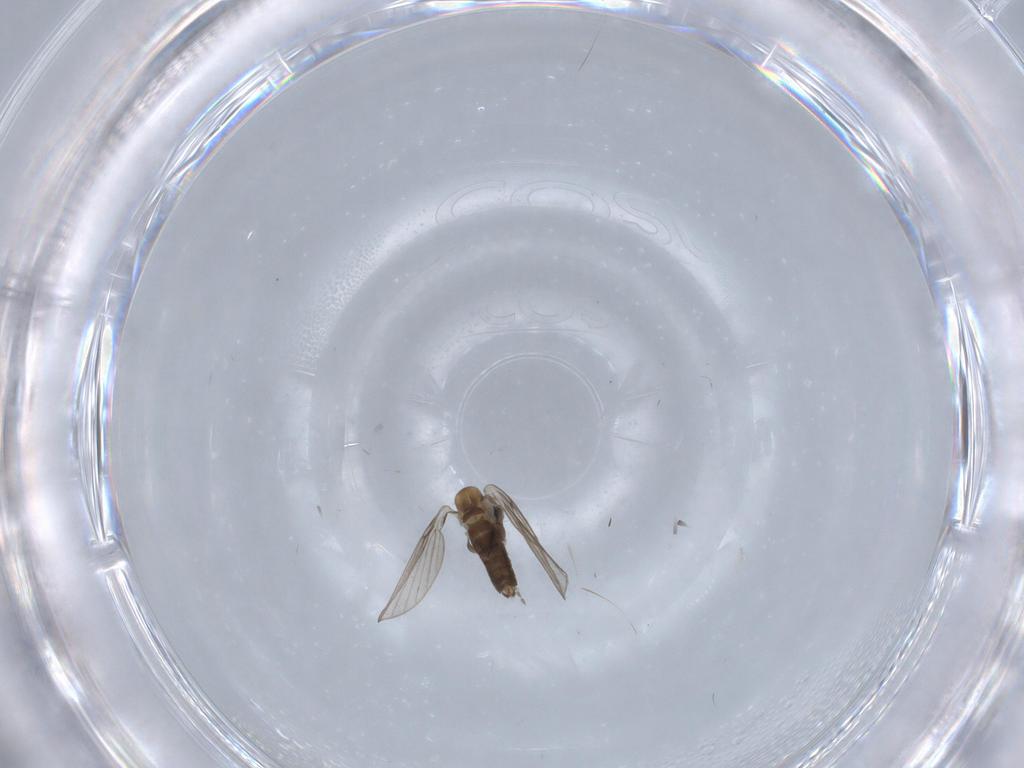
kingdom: Animalia
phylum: Arthropoda
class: Insecta
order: Diptera
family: Chironomidae
